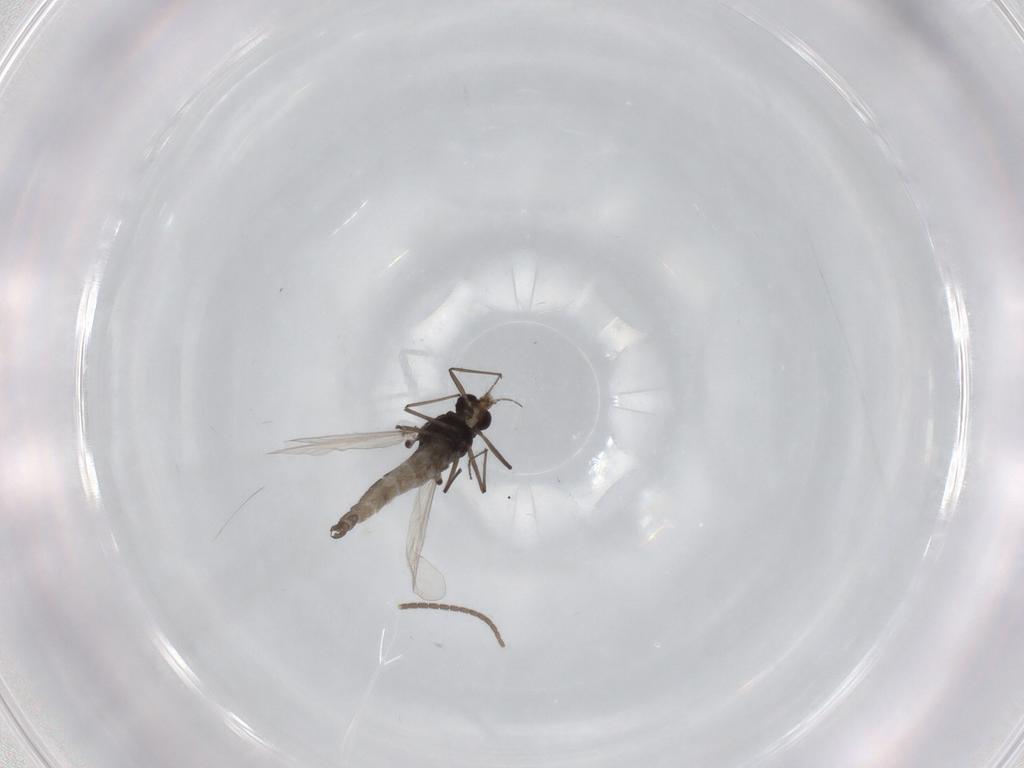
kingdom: Animalia
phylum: Arthropoda
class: Insecta
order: Diptera
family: Chironomidae
